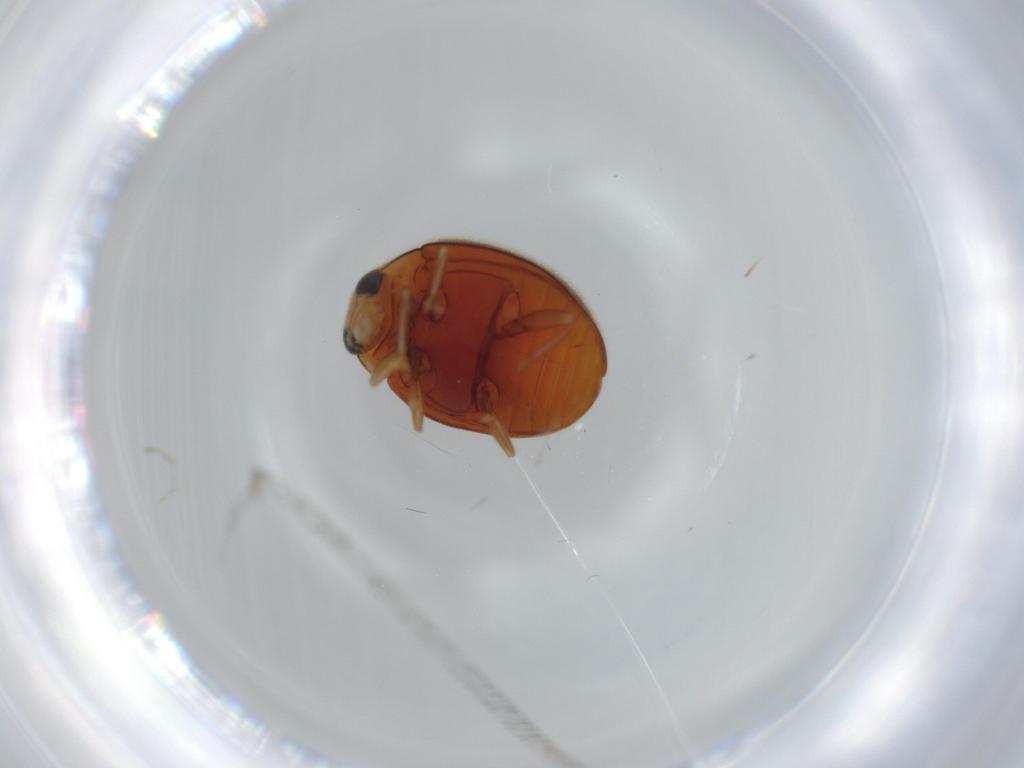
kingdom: Animalia
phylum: Arthropoda
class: Insecta
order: Coleoptera
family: Coccinellidae
